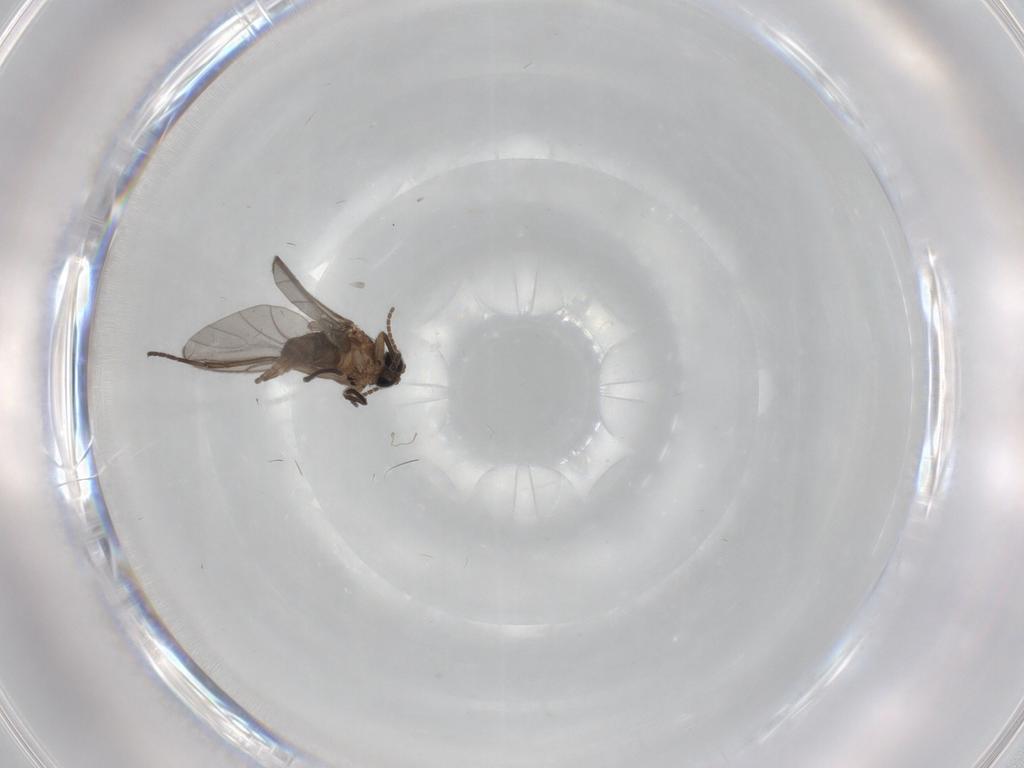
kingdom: Animalia
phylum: Arthropoda
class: Insecta
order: Diptera
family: Sciaridae
